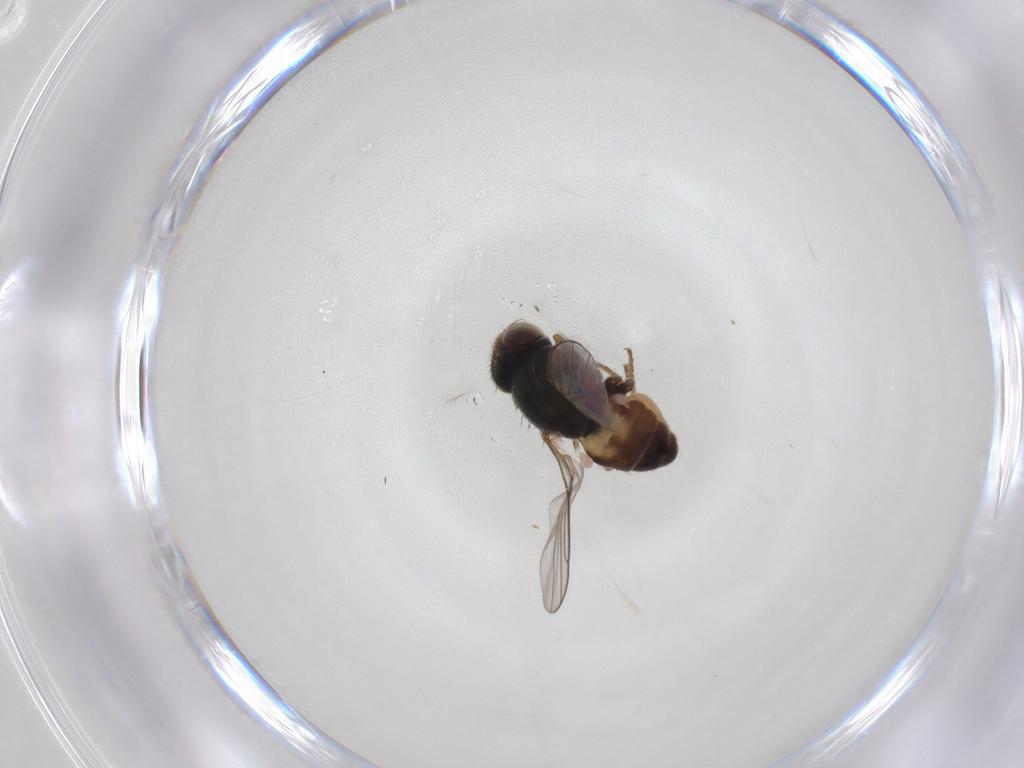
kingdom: Animalia
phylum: Arthropoda
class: Insecta
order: Diptera
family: Chloropidae
